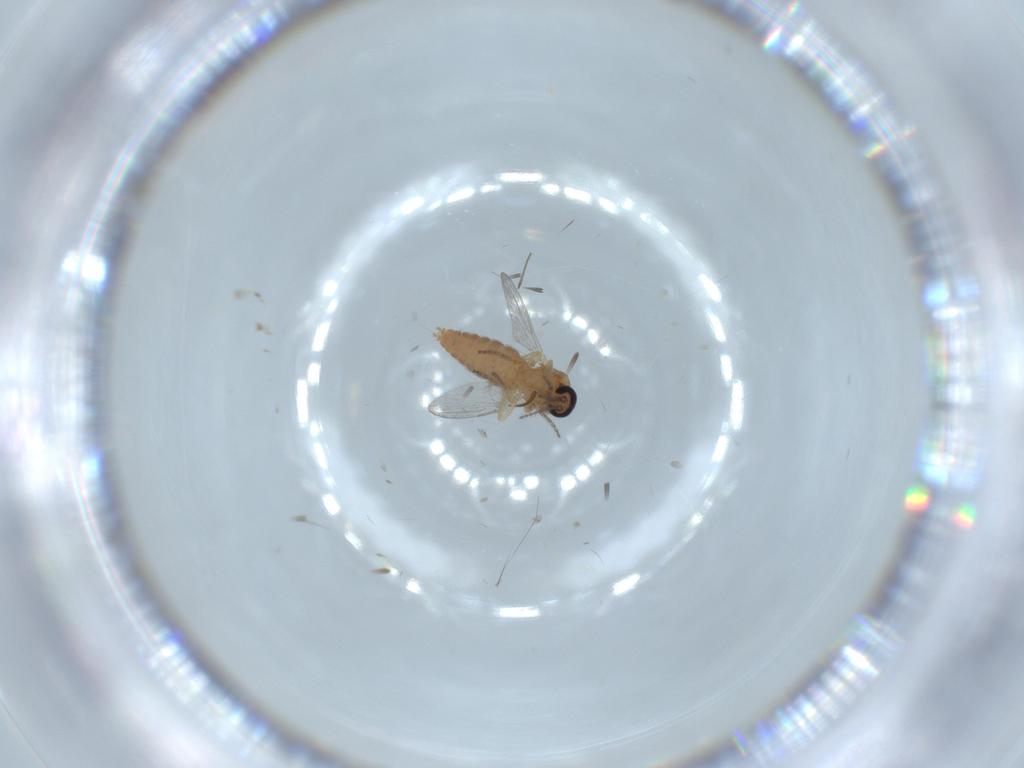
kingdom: Animalia
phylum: Arthropoda
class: Insecta
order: Diptera
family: Ceratopogonidae
